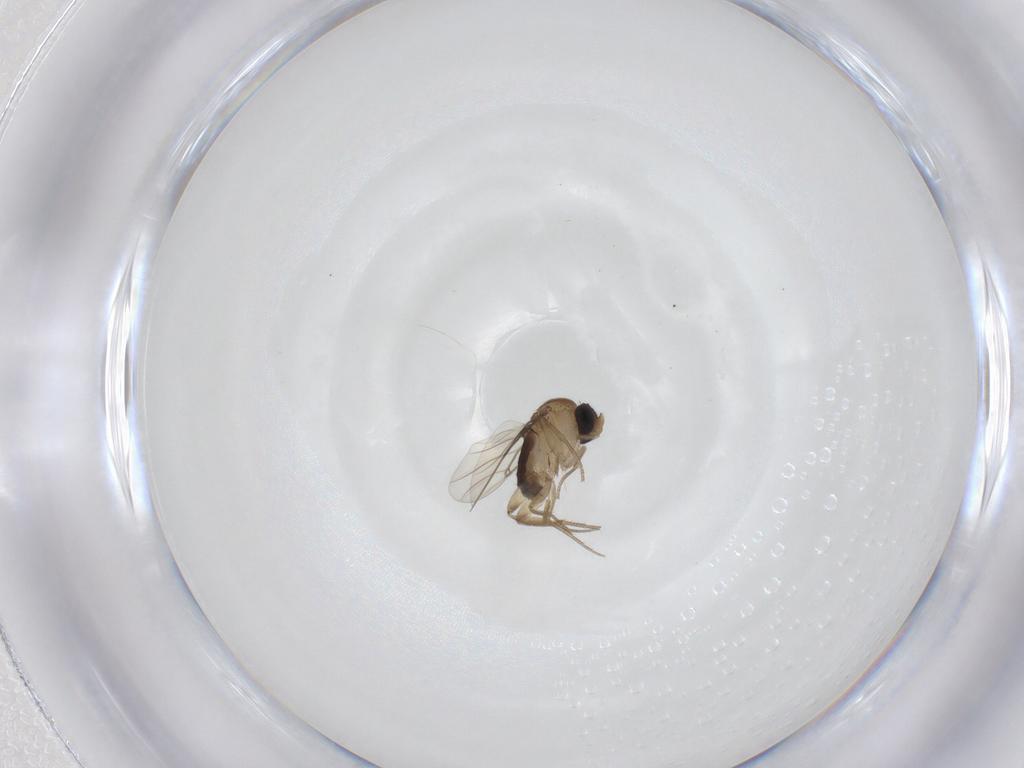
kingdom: Animalia
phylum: Arthropoda
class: Insecta
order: Diptera
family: Phoridae
